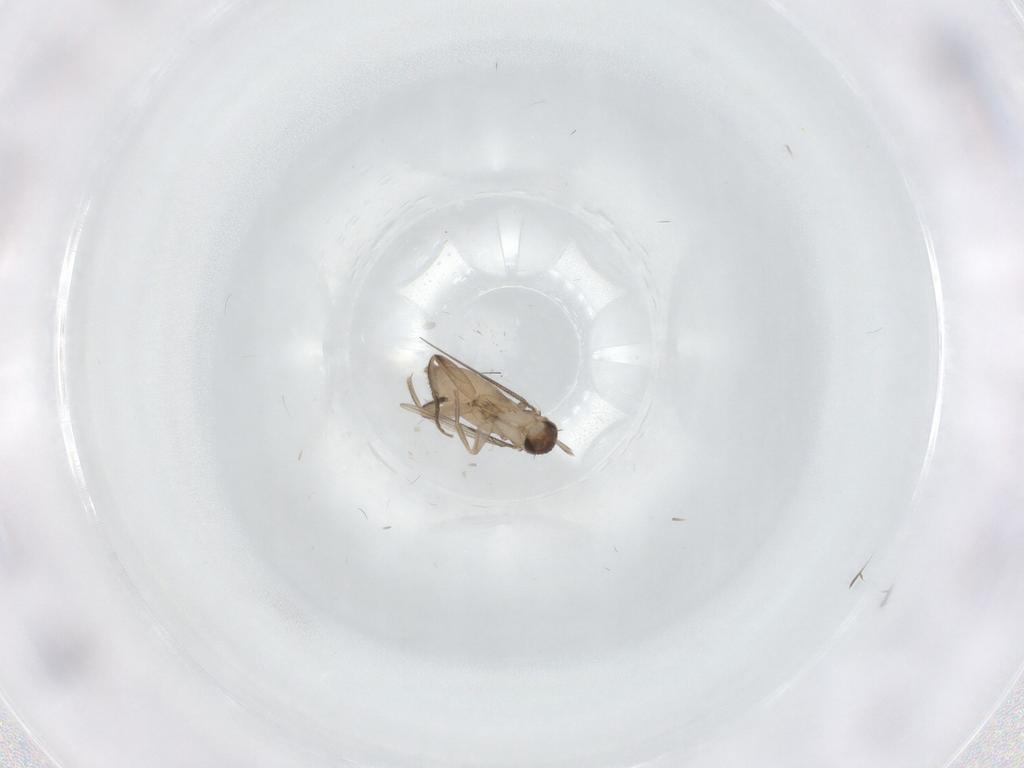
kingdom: Animalia
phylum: Arthropoda
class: Insecta
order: Diptera
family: Phoridae
